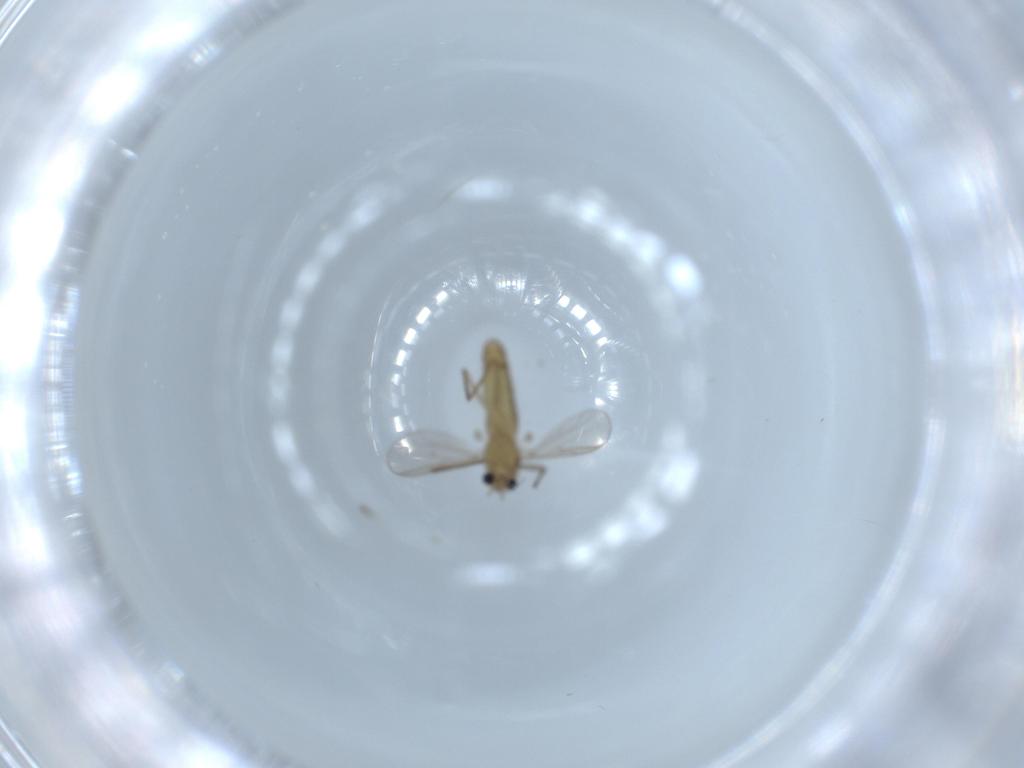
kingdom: Animalia
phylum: Arthropoda
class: Insecta
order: Diptera
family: Chironomidae
